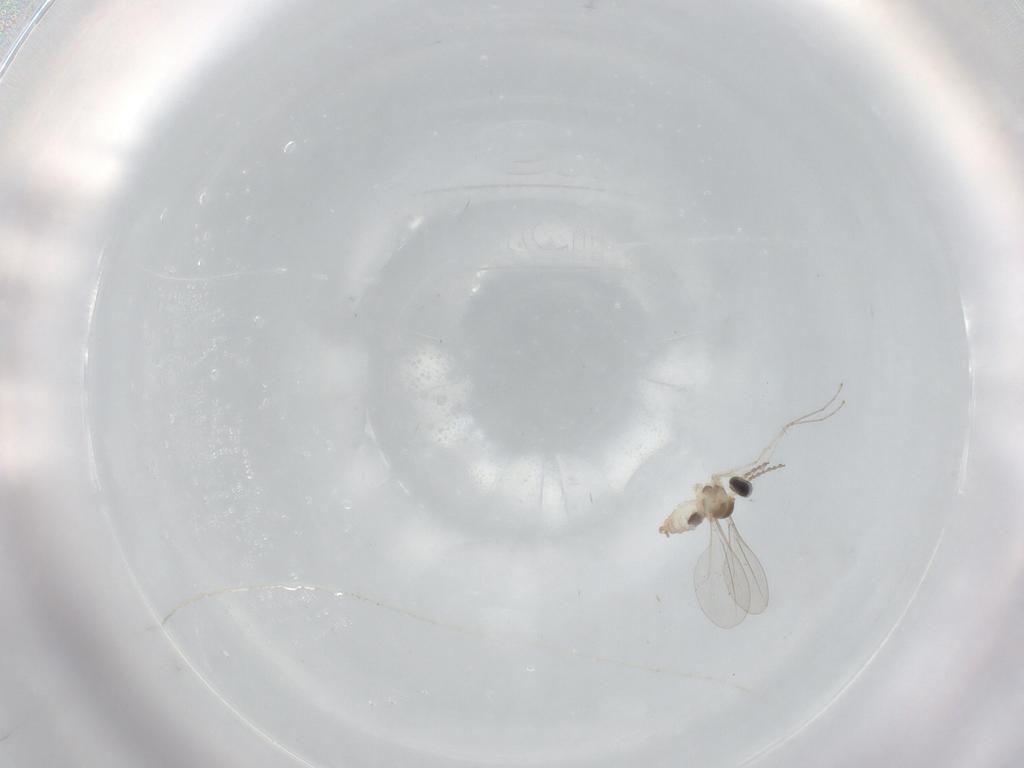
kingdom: Animalia
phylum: Arthropoda
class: Insecta
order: Diptera
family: Cecidomyiidae
